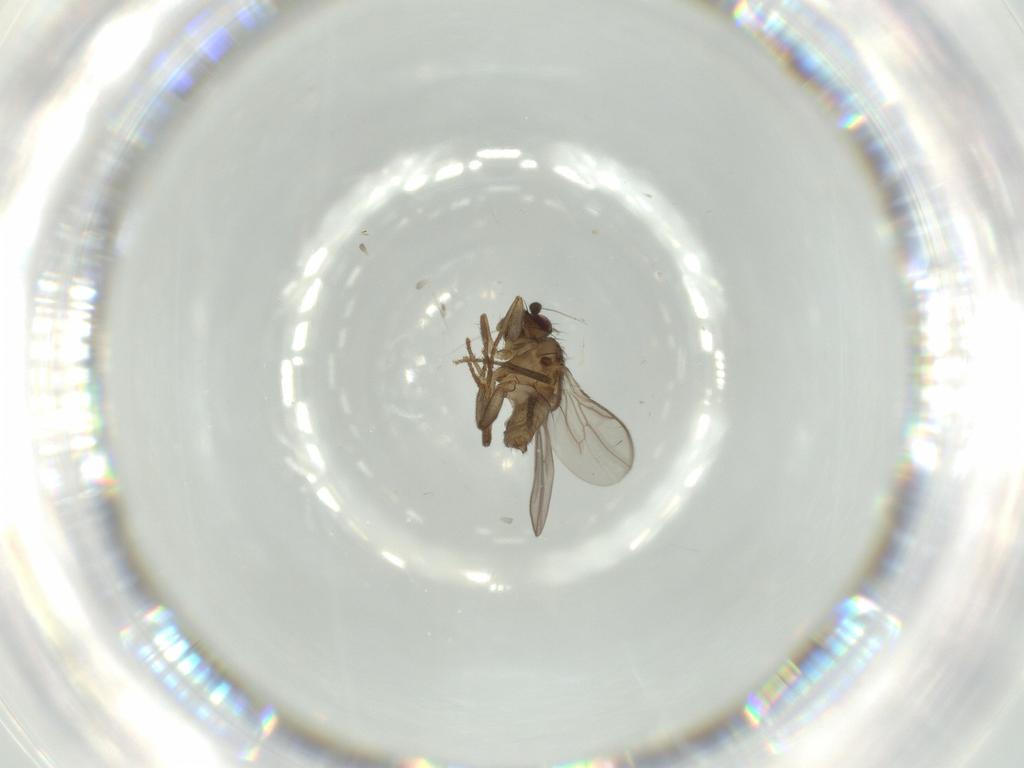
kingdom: Animalia
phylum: Arthropoda
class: Insecta
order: Diptera
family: Sphaeroceridae
